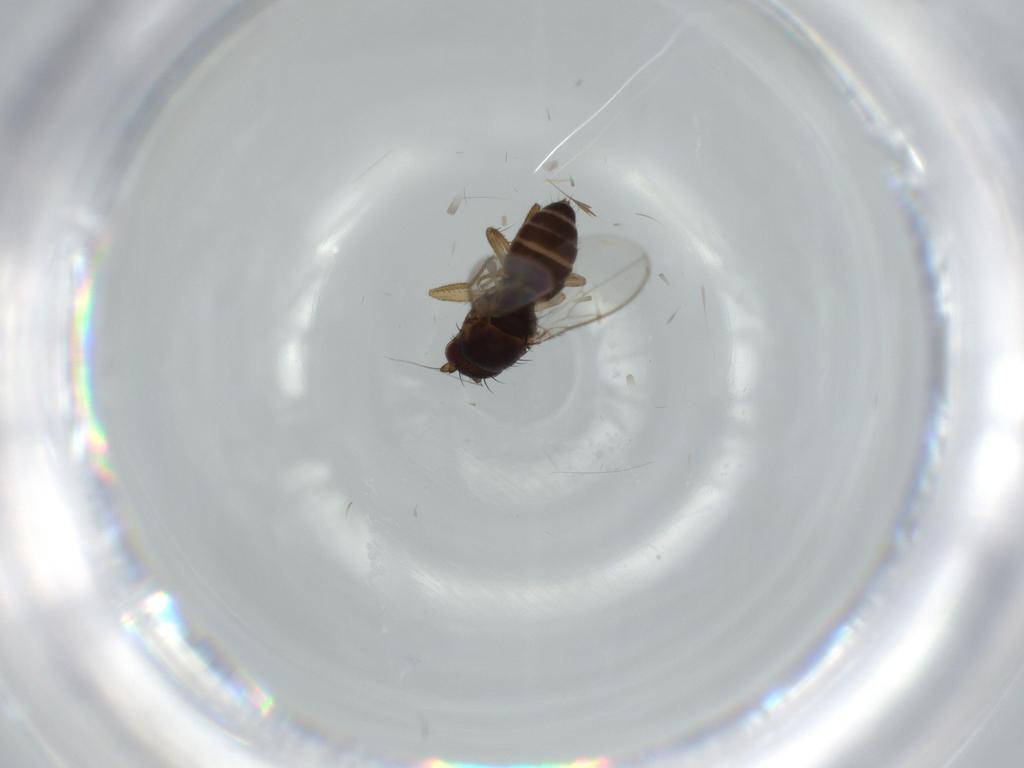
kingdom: Animalia
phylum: Arthropoda
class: Insecta
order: Diptera
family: Sphaeroceridae
